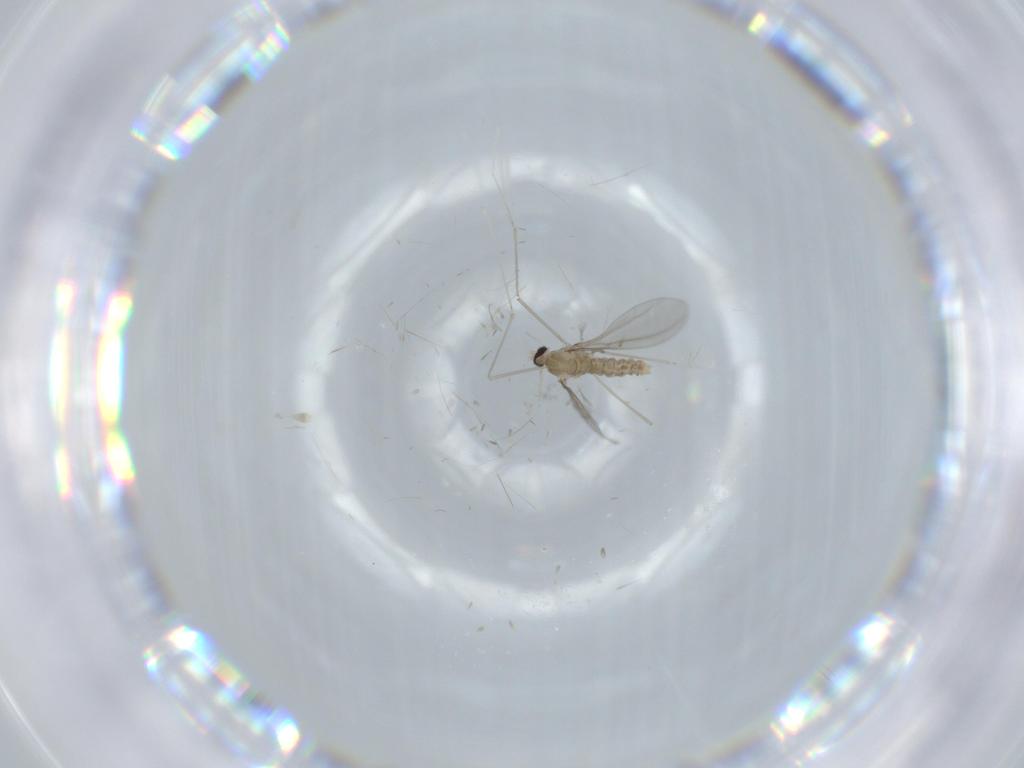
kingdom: Animalia
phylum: Arthropoda
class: Insecta
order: Diptera
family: Cecidomyiidae
